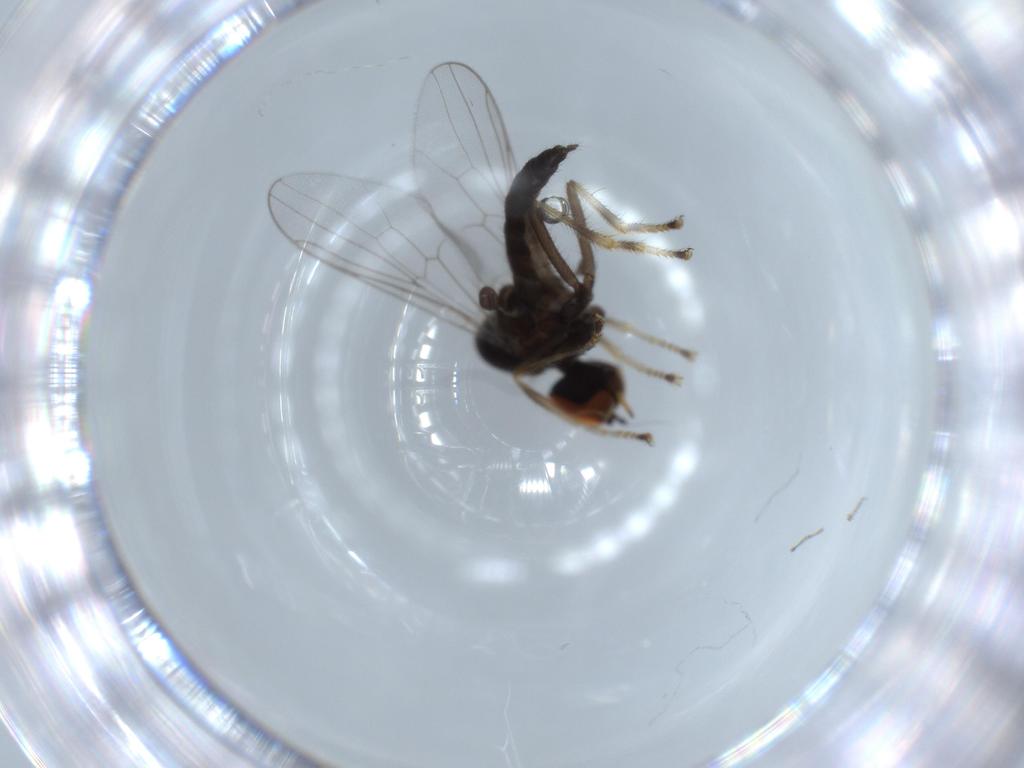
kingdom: Animalia
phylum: Arthropoda
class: Insecta
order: Diptera
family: Hybotidae
